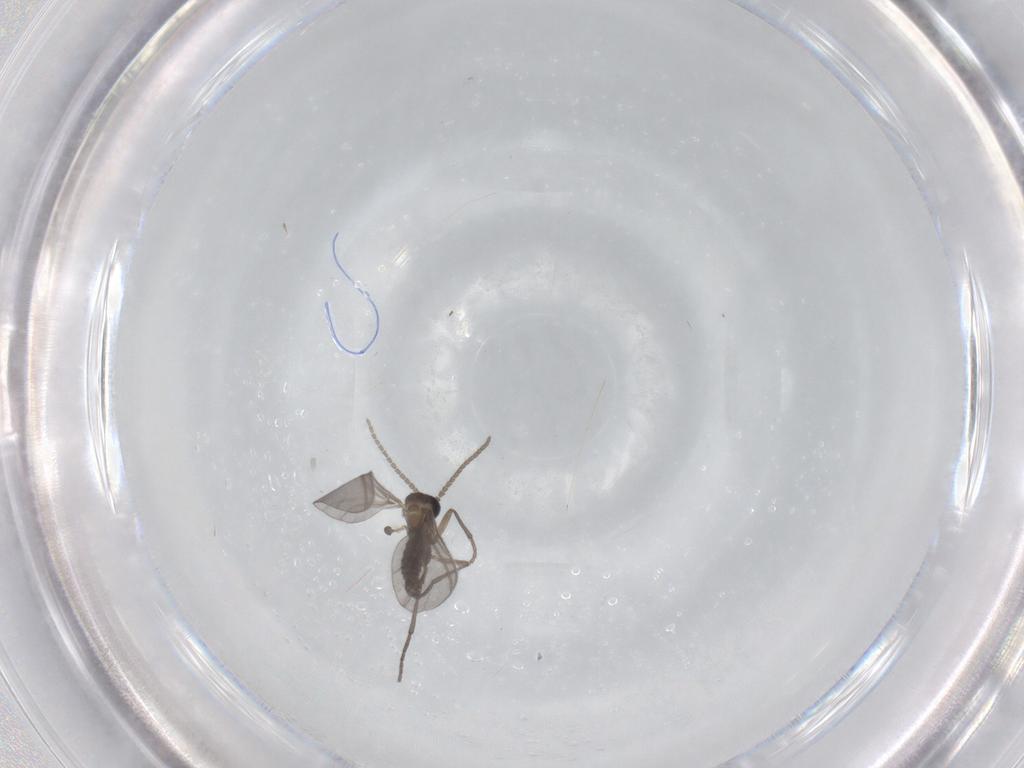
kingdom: Animalia
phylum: Arthropoda
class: Insecta
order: Diptera
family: Sciaridae
